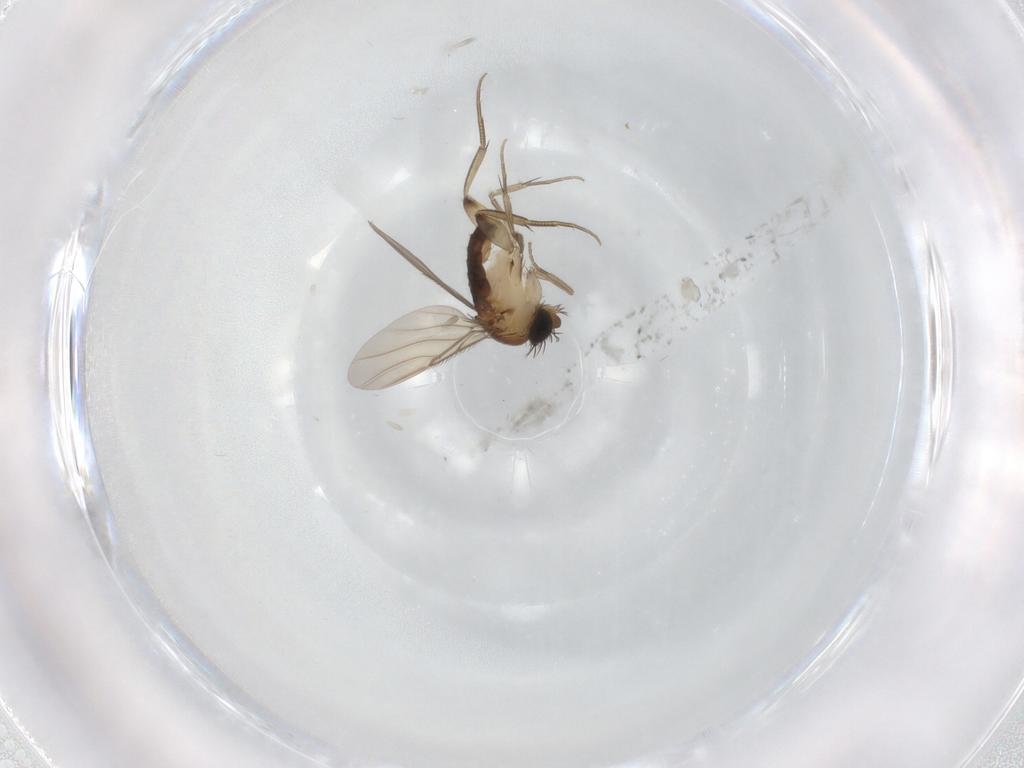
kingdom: Animalia
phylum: Arthropoda
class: Insecta
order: Diptera
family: Phoridae
